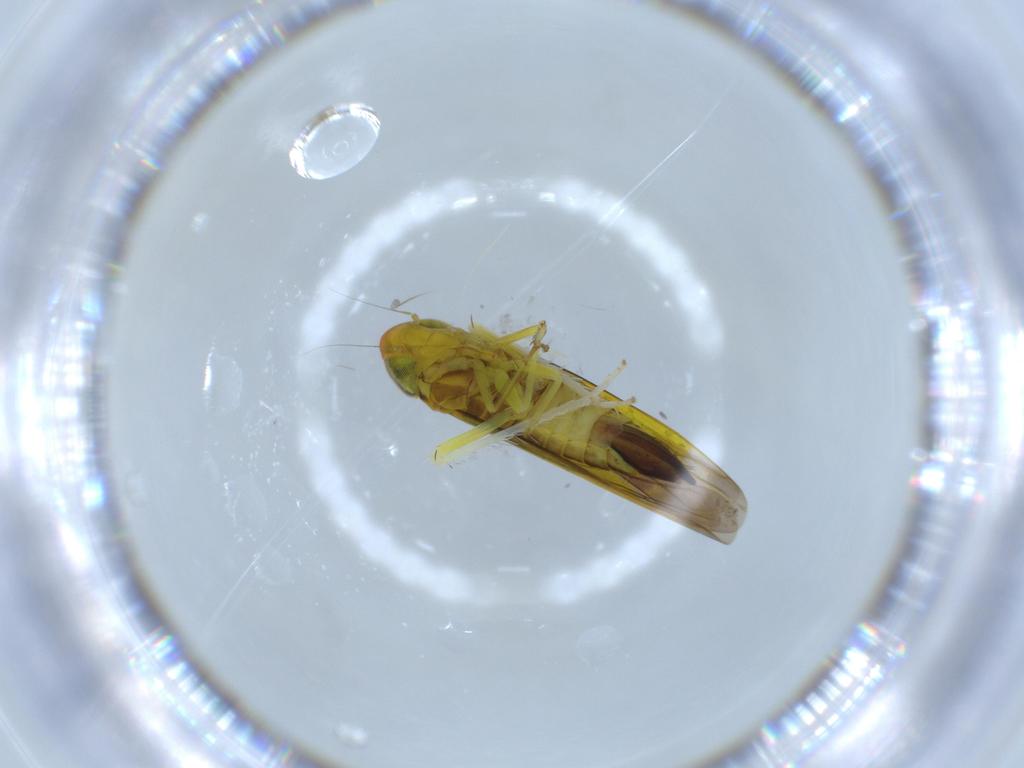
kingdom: Animalia
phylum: Arthropoda
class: Insecta
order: Hemiptera
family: Cicadellidae
